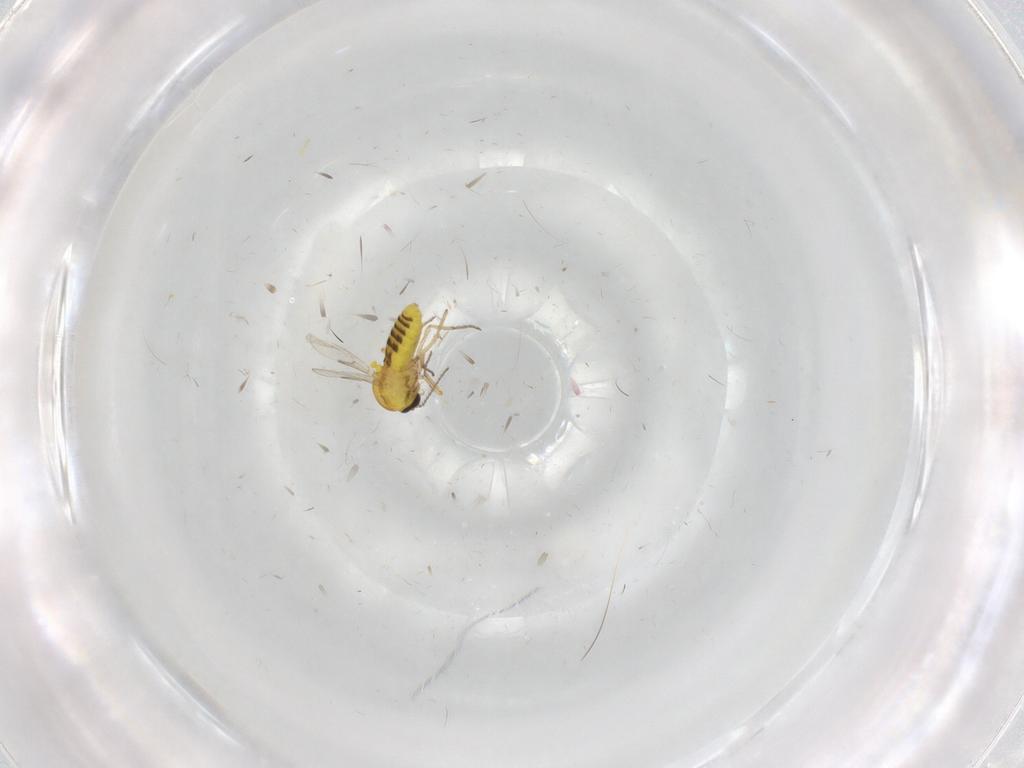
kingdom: Animalia
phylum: Arthropoda
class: Insecta
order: Diptera
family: Ceratopogonidae
